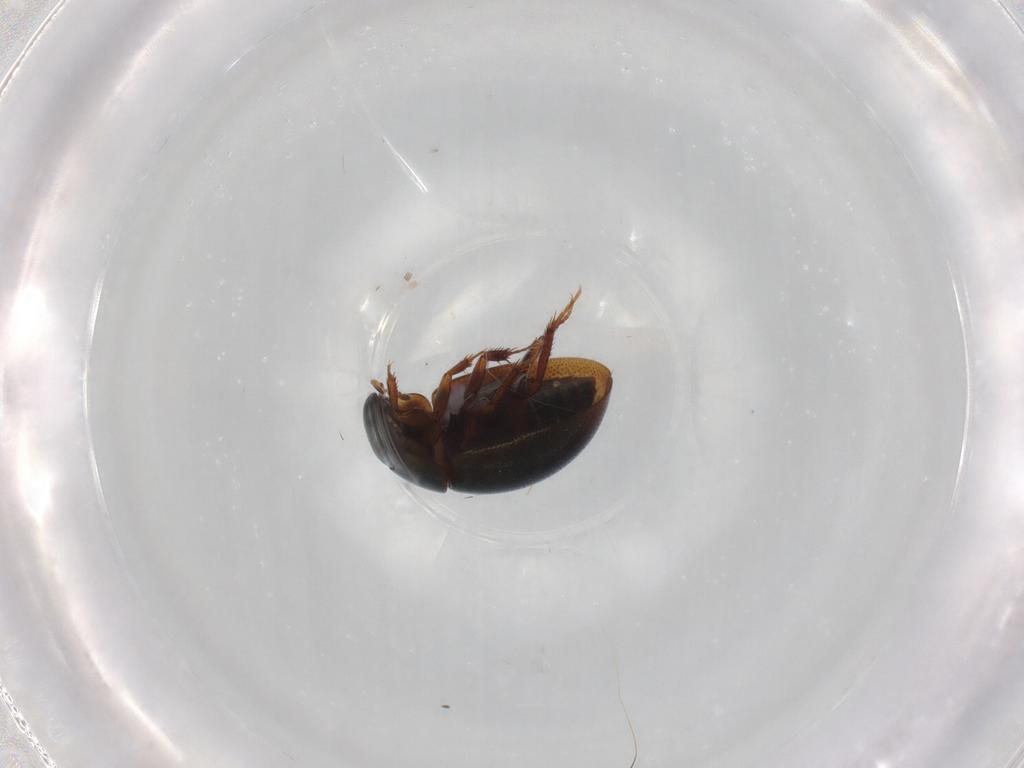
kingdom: Animalia
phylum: Arthropoda
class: Insecta
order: Coleoptera
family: Hydrophilidae
